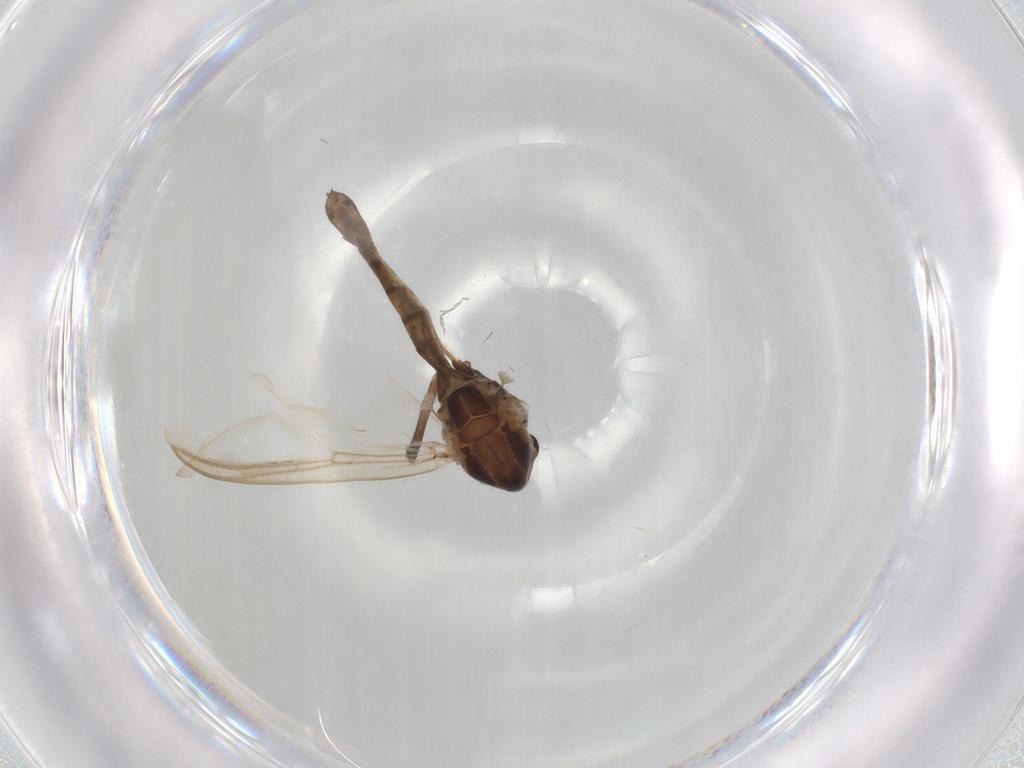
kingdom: Animalia
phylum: Arthropoda
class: Insecta
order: Diptera
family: Chironomidae
